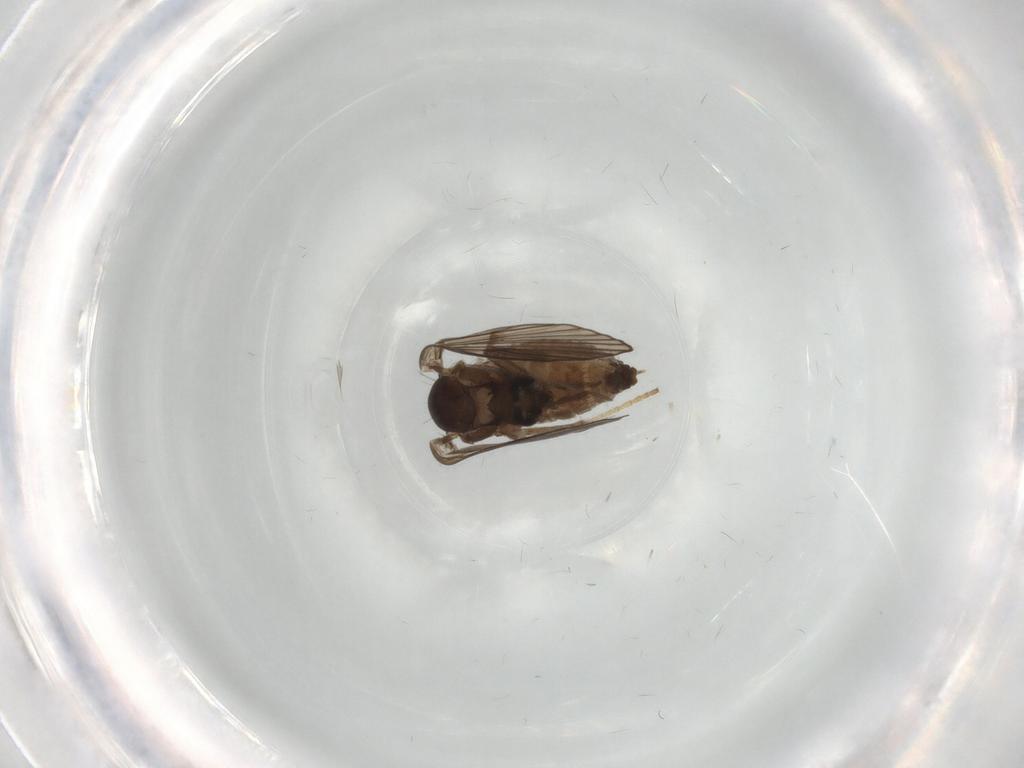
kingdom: Animalia
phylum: Arthropoda
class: Insecta
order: Diptera
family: Psychodidae
